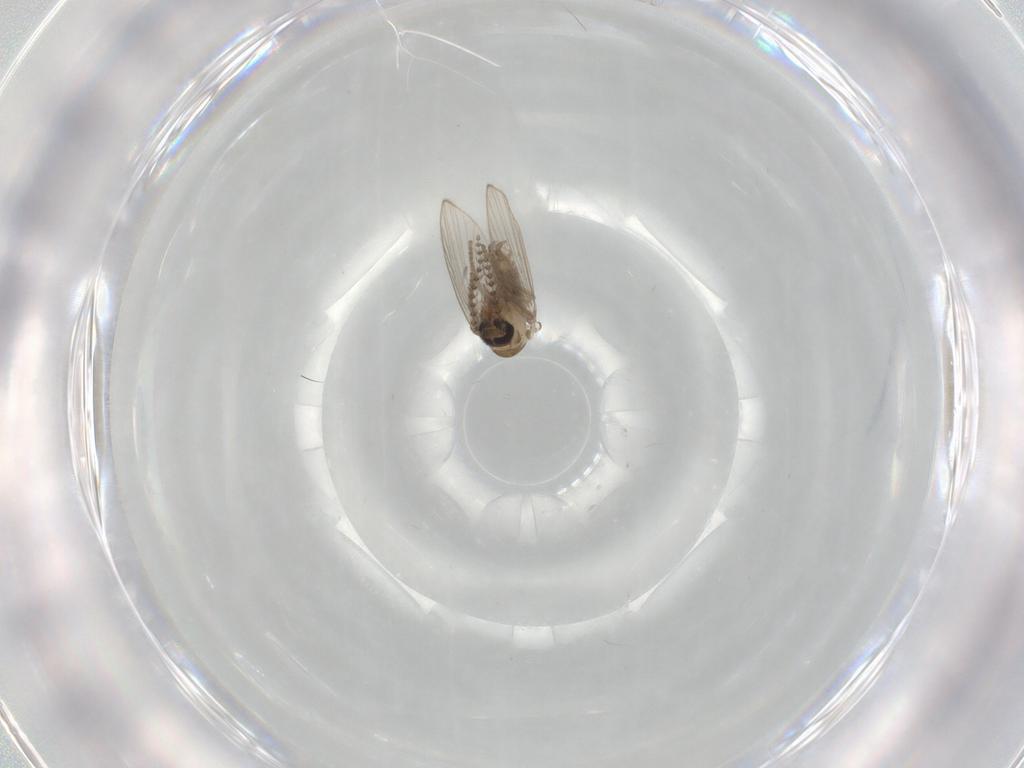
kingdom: Animalia
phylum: Arthropoda
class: Insecta
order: Diptera
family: Psychodidae
